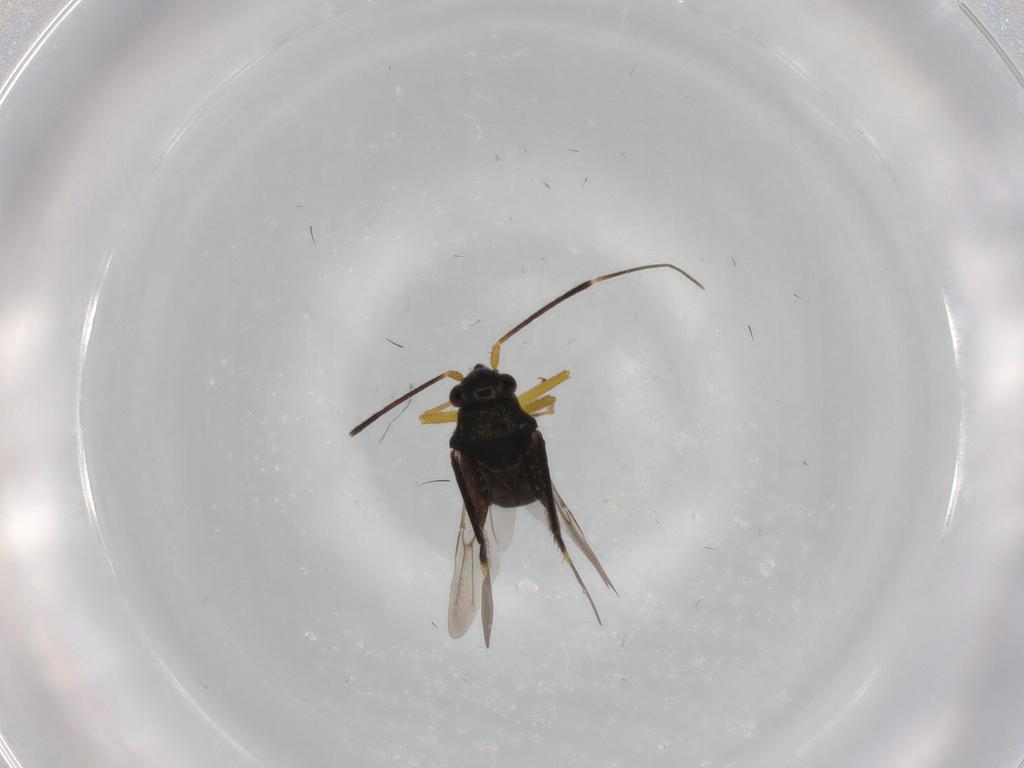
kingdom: Animalia
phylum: Arthropoda
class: Insecta
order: Hemiptera
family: Miridae
